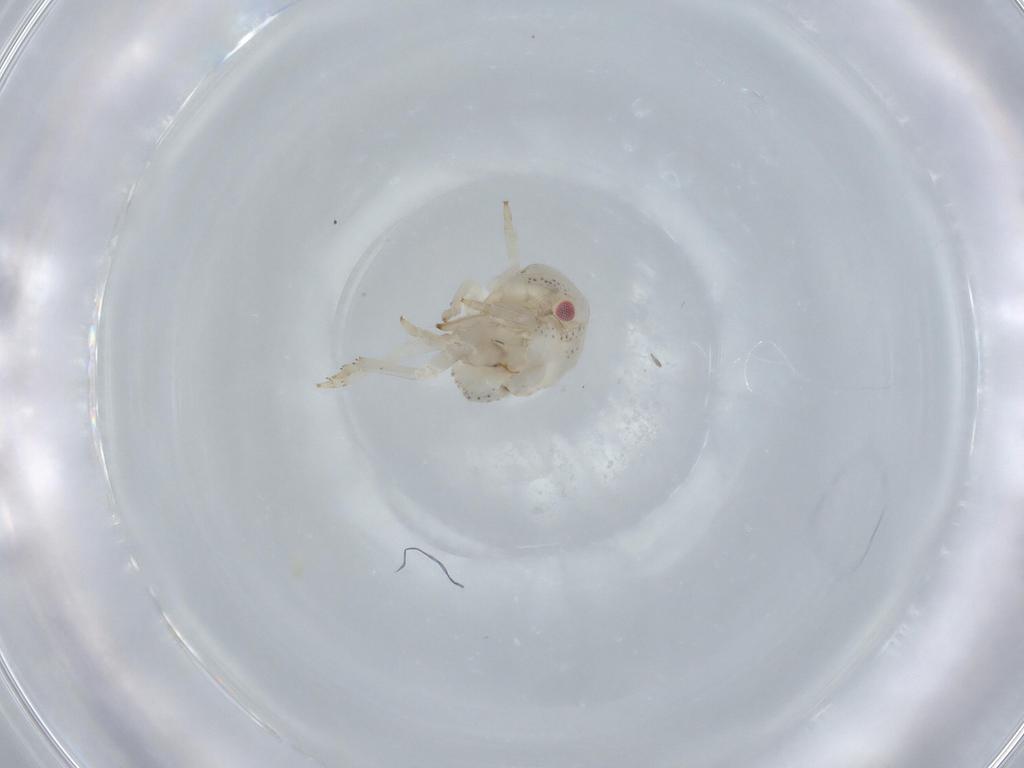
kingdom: Animalia
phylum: Arthropoda
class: Insecta
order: Hemiptera
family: Acanaloniidae
